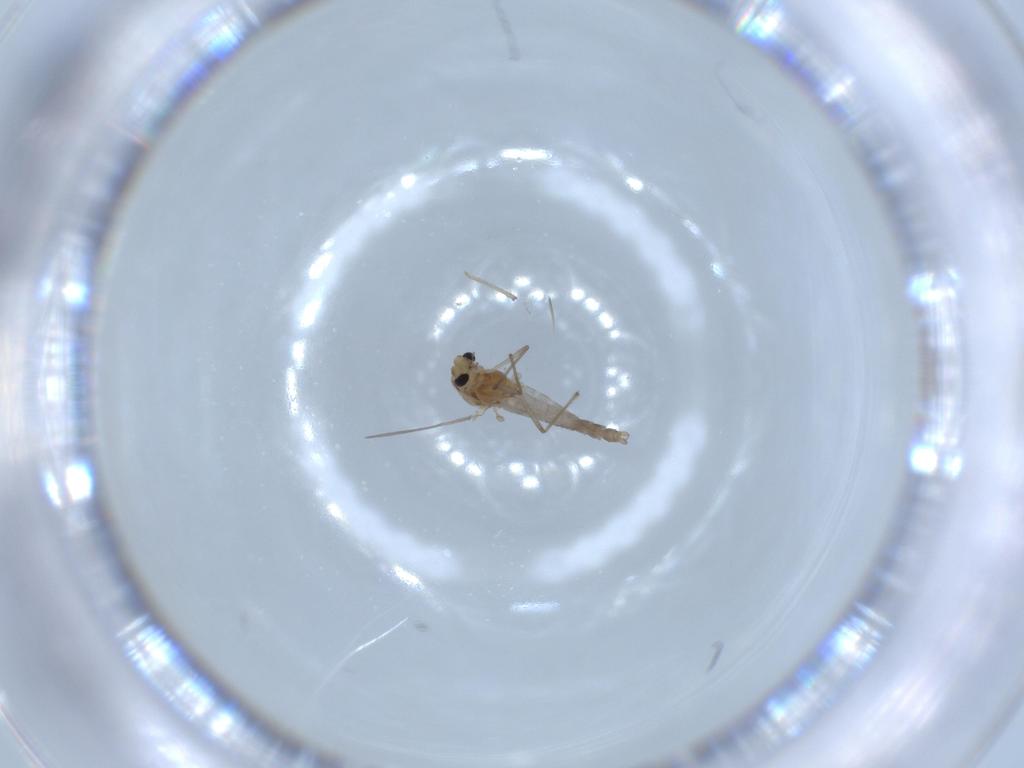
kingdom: Animalia
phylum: Arthropoda
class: Insecta
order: Diptera
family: Chironomidae
